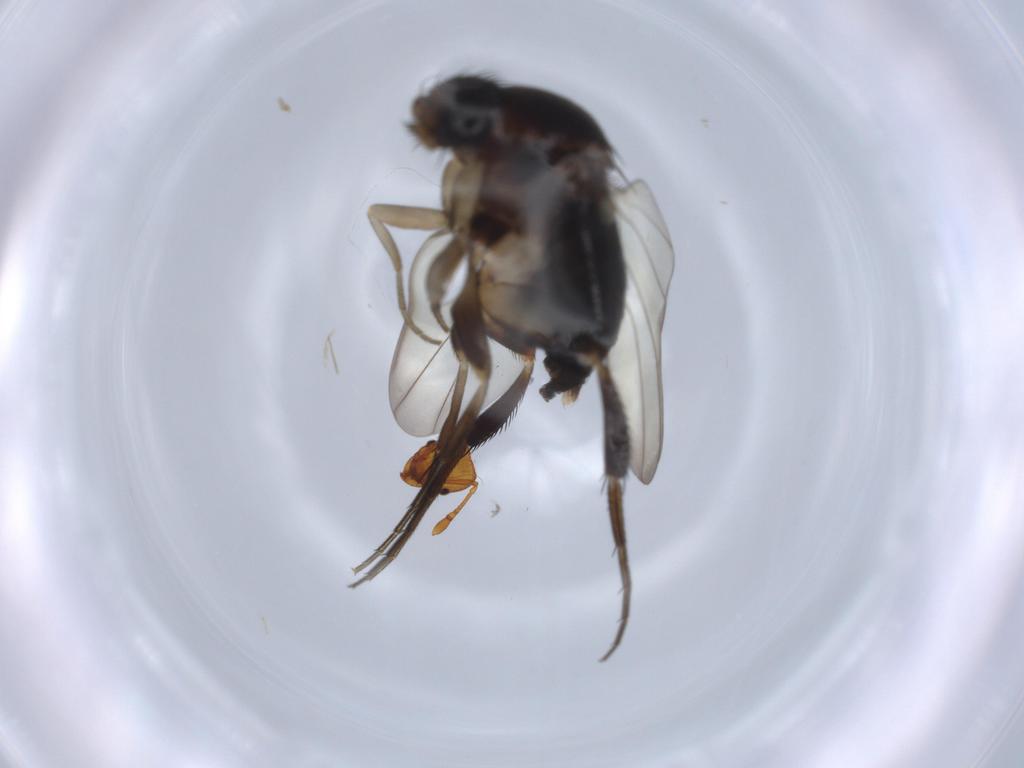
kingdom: Animalia
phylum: Arthropoda
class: Insecta
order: Diptera
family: Phoridae
